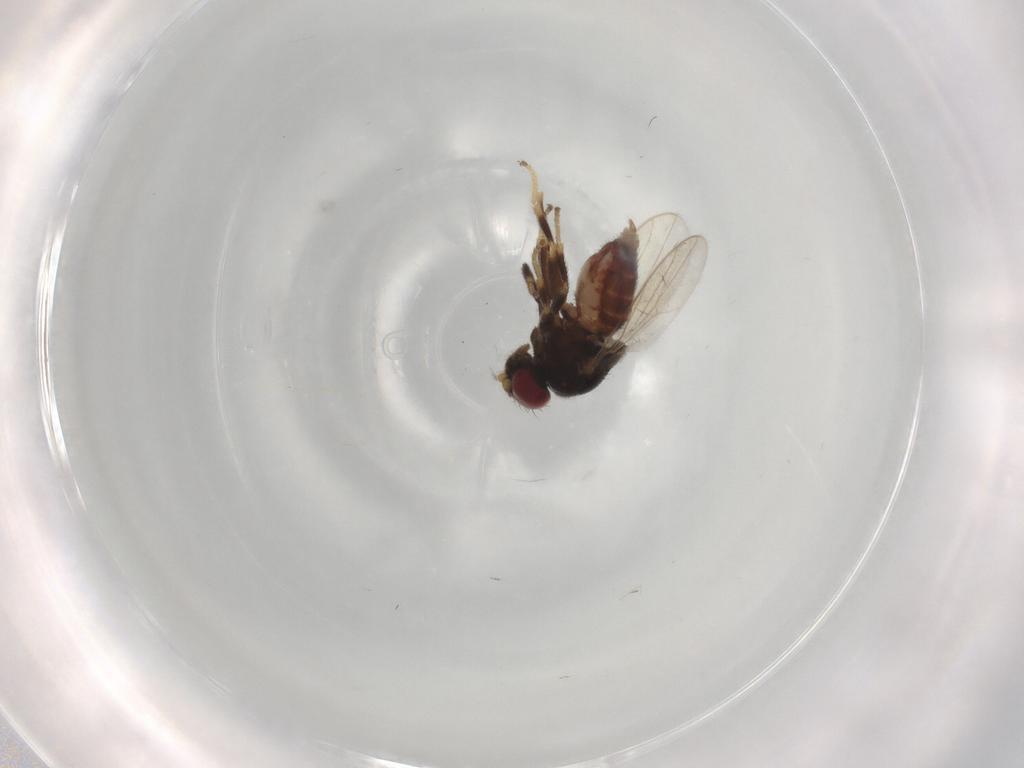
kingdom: Animalia
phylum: Arthropoda
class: Insecta
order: Diptera
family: Chloropidae
